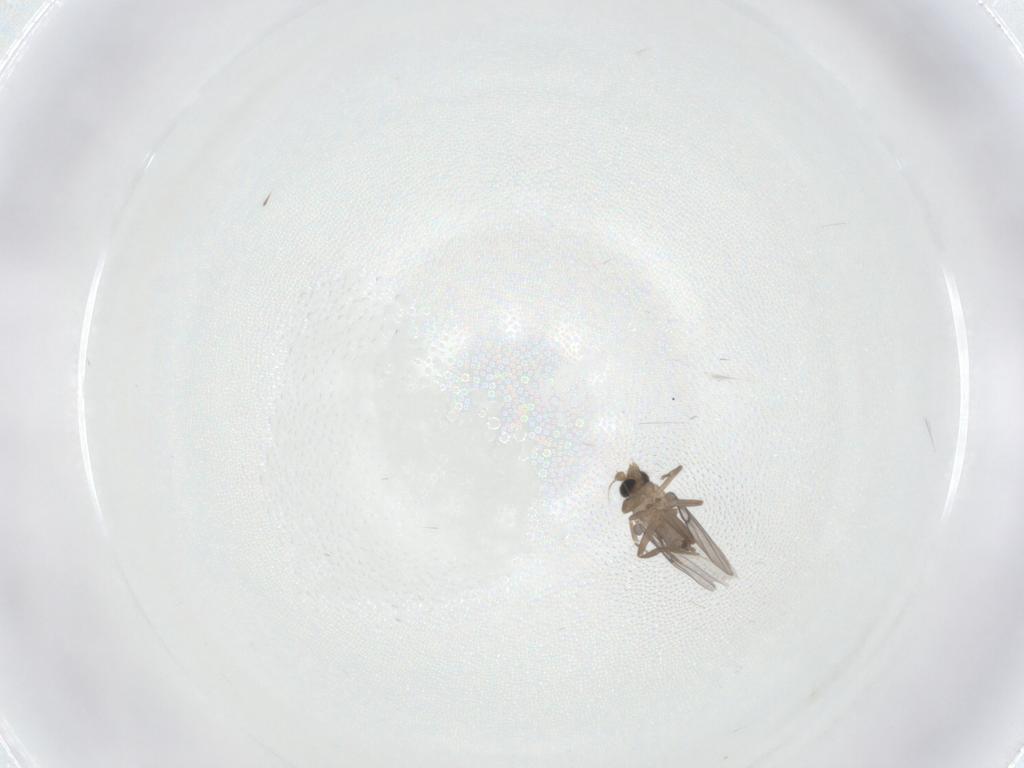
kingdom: Animalia
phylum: Arthropoda
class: Insecta
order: Diptera
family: Mycetophilidae
